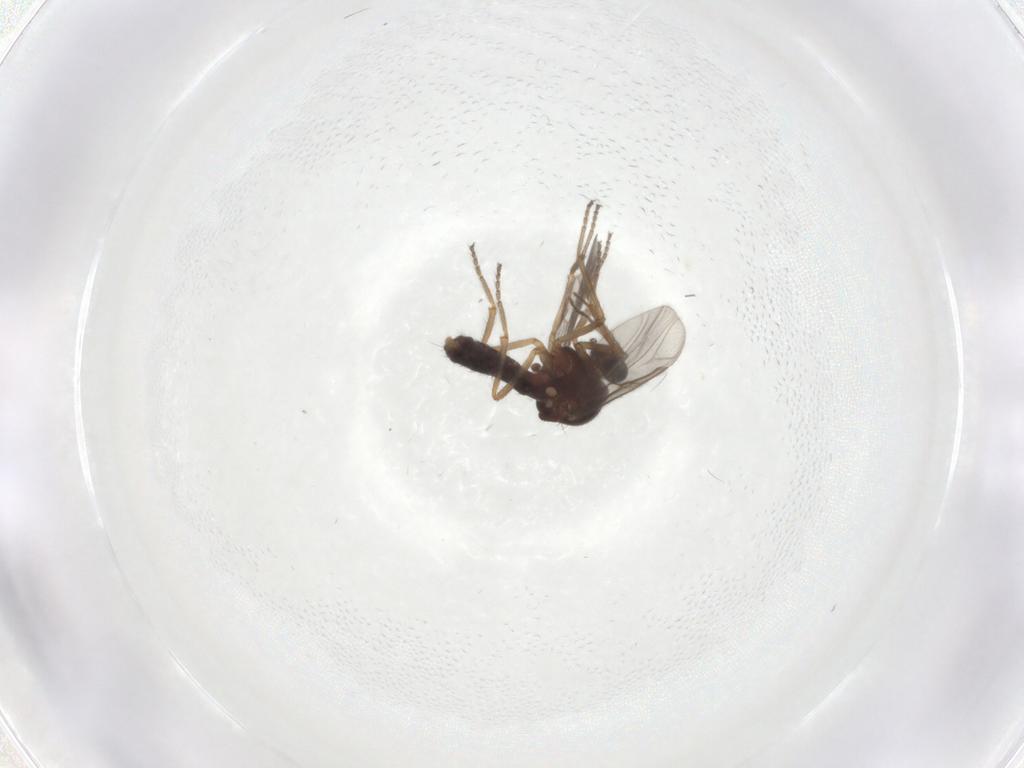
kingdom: Animalia
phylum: Arthropoda
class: Insecta
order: Diptera
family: Ceratopogonidae
